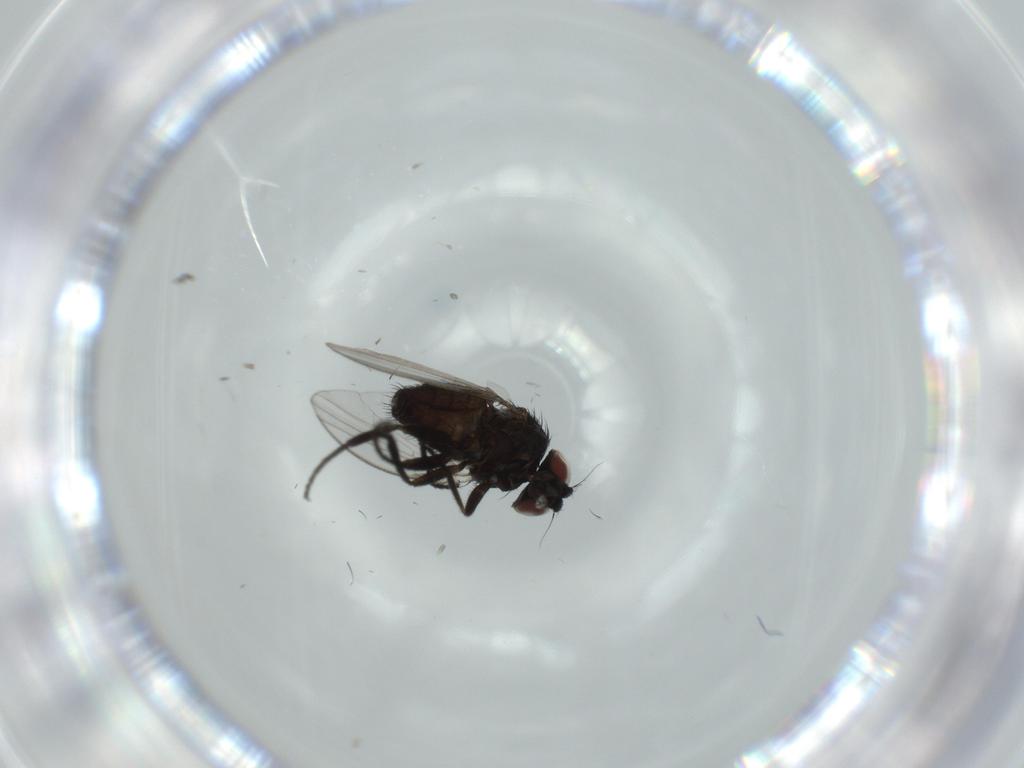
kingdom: Animalia
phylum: Arthropoda
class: Insecta
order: Diptera
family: Milichiidae
